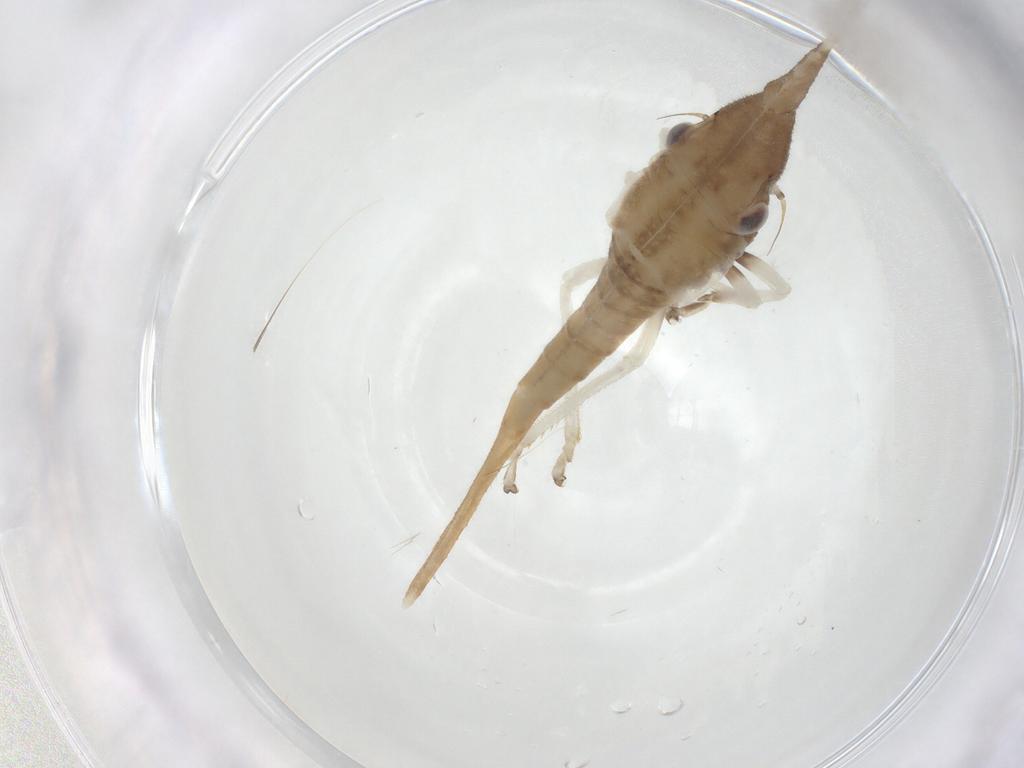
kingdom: Animalia
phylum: Arthropoda
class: Insecta
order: Hemiptera
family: Cicadellidae
